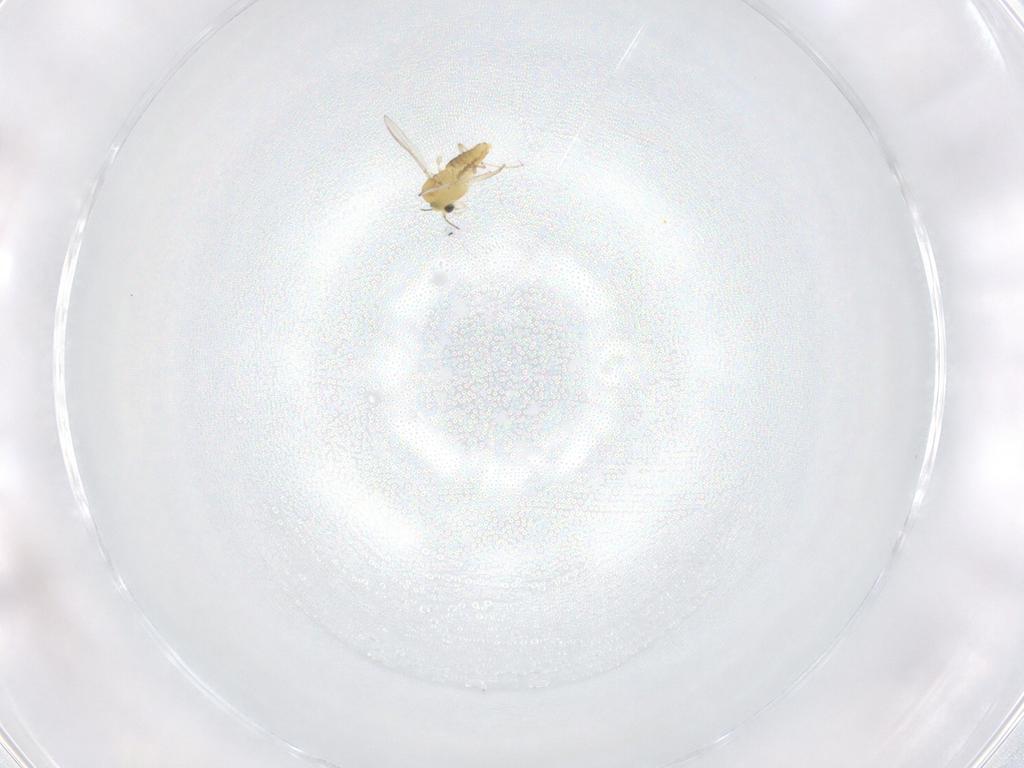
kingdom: Animalia
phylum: Arthropoda
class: Insecta
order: Diptera
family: Chironomidae
